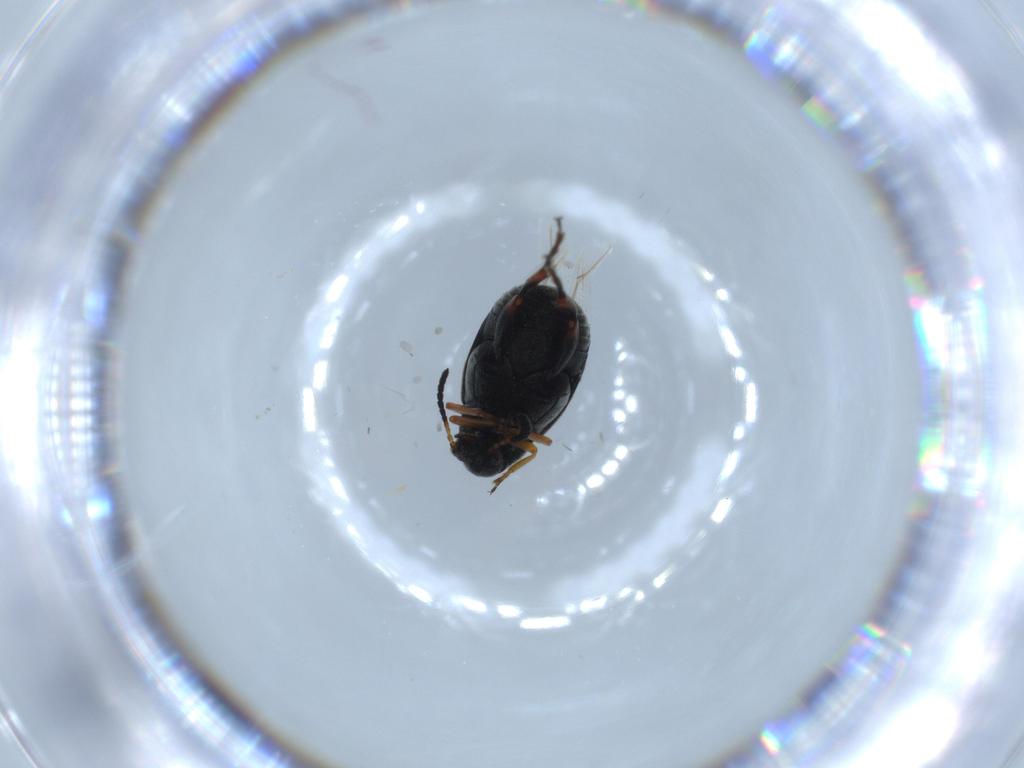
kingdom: Animalia
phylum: Arthropoda
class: Insecta
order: Coleoptera
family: Chrysomelidae
